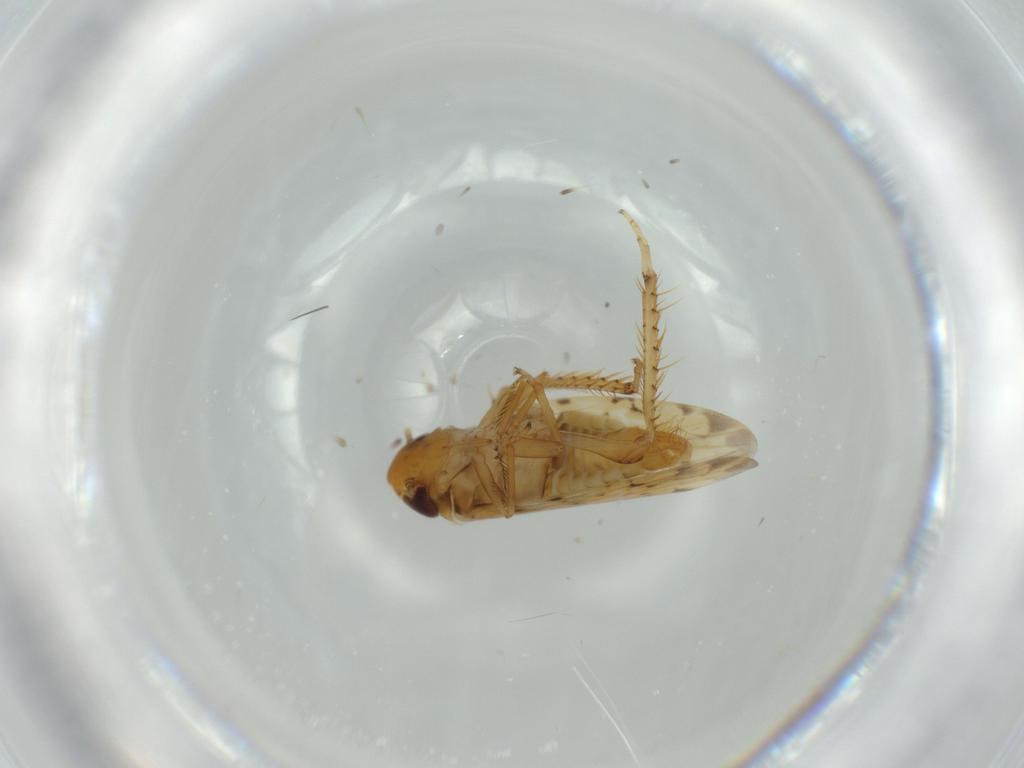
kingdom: Animalia
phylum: Arthropoda
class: Insecta
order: Hemiptera
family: Cicadellidae
